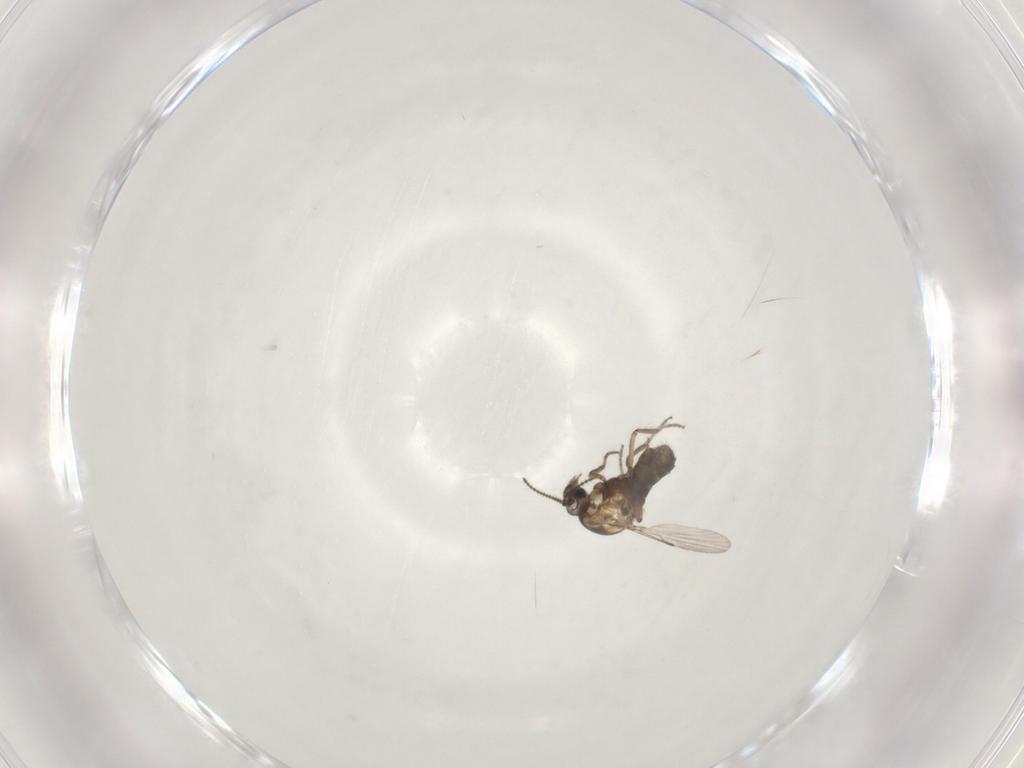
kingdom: Animalia
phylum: Arthropoda
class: Insecta
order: Diptera
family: Ceratopogonidae
